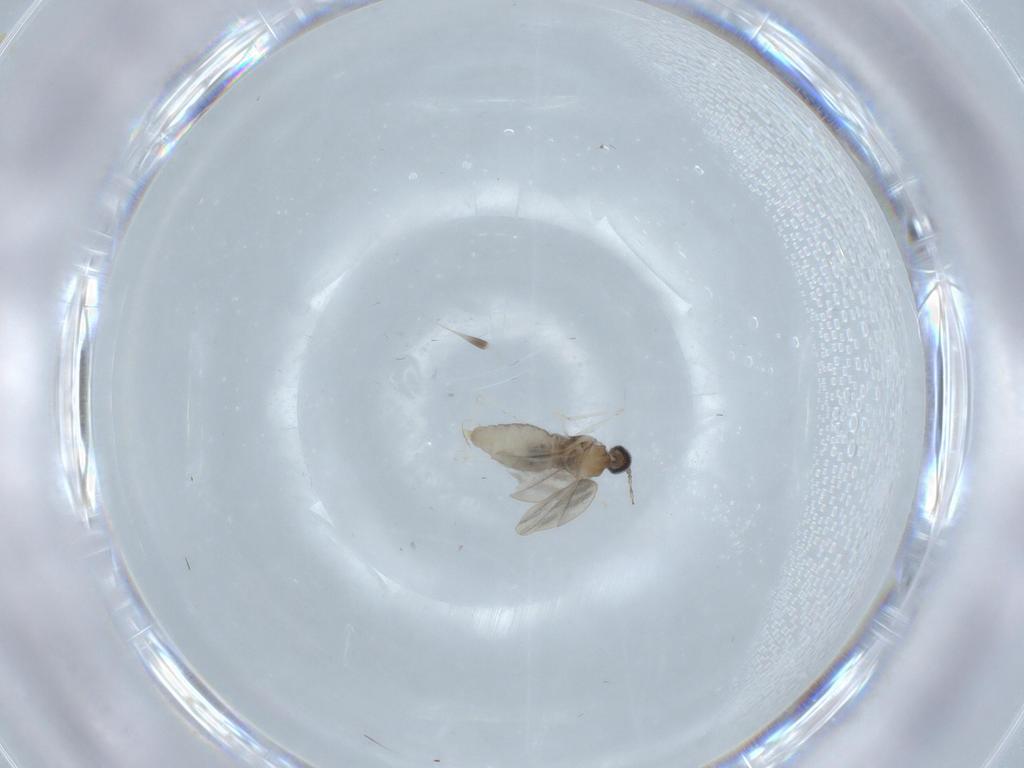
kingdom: Animalia
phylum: Arthropoda
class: Insecta
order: Diptera
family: Cecidomyiidae
